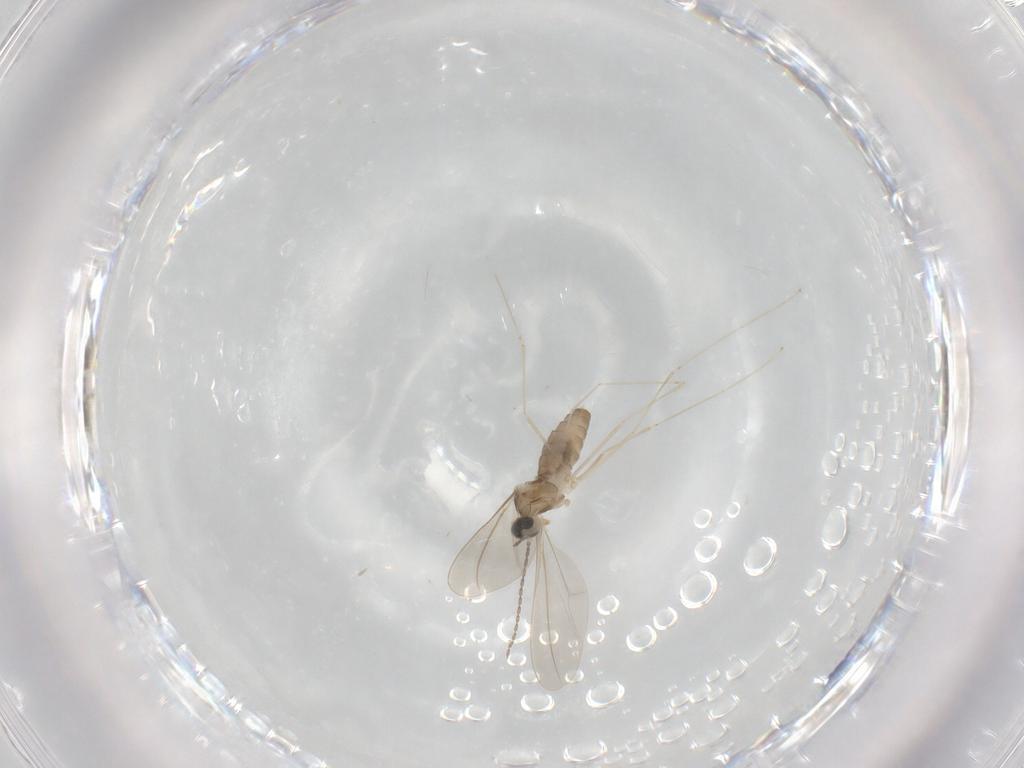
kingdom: Animalia
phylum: Arthropoda
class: Insecta
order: Diptera
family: Cecidomyiidae
